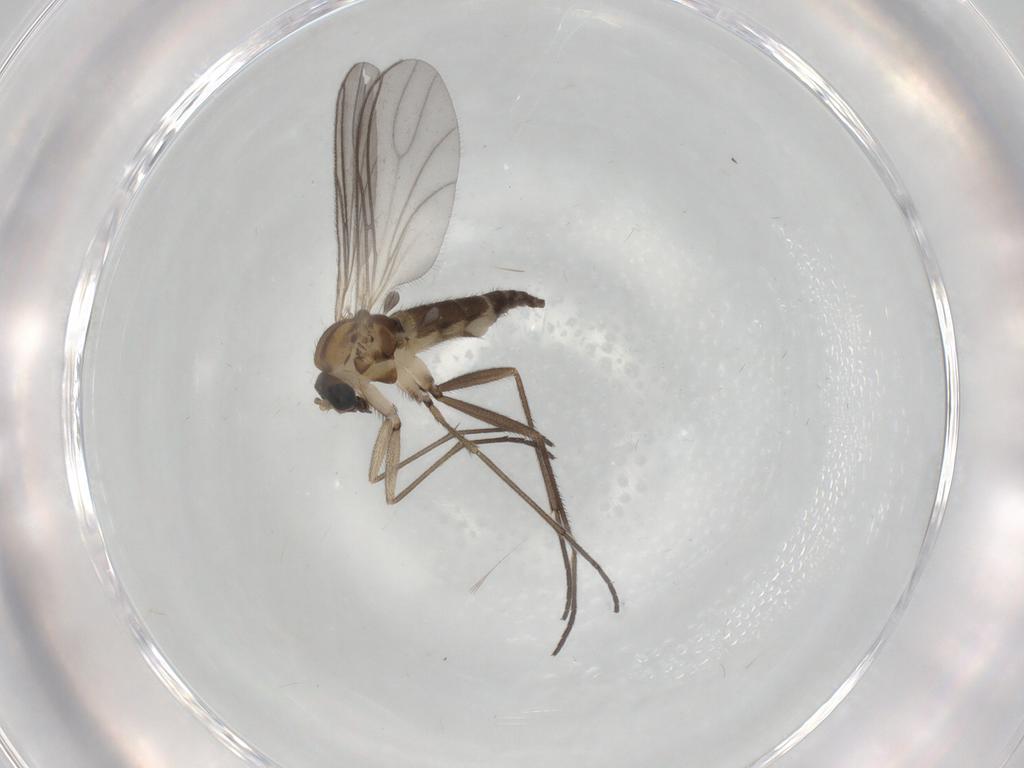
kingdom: Animalia
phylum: Arthropoda
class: Insecta
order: Diptera
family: Sciaridae
